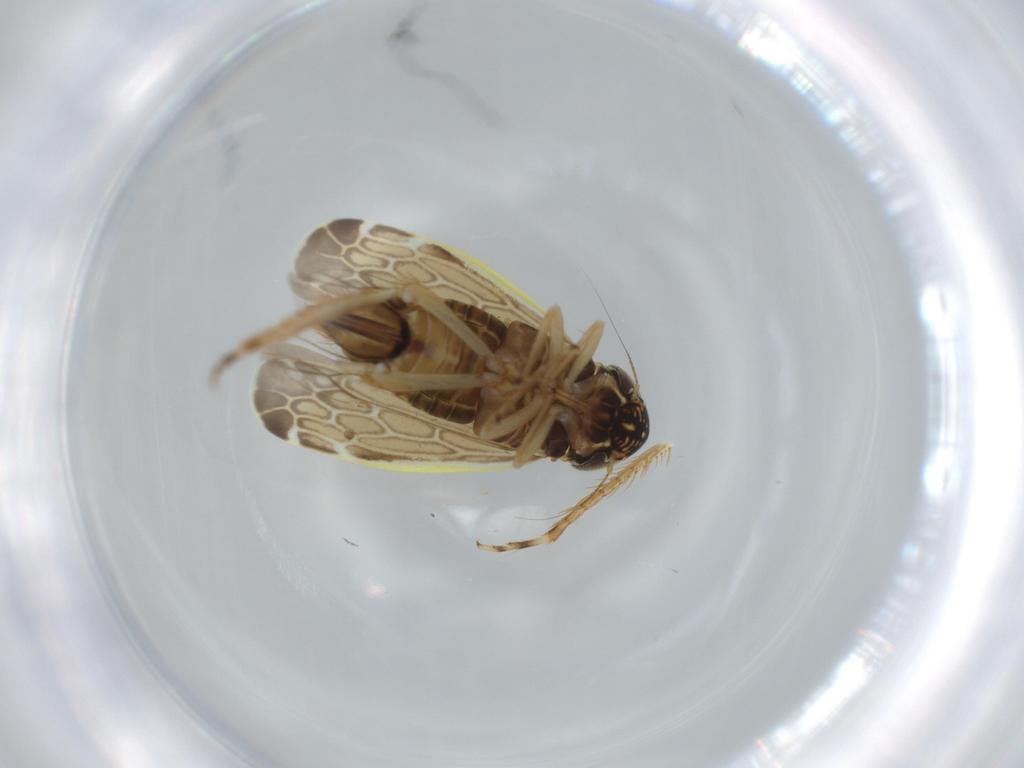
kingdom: Animalia
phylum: Arthropoda
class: Insecta
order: Hemiptera
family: Cicadellidae
